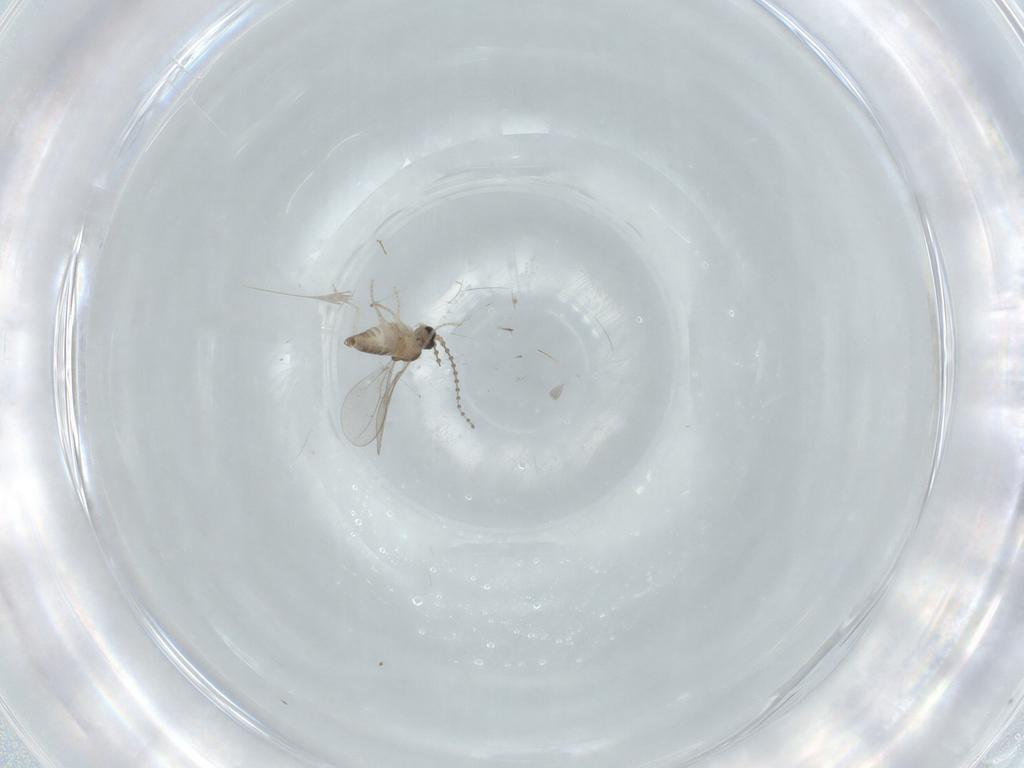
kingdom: Animalia
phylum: Arthropoda
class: Insecta
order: Diptera
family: Cecidomyiidae
